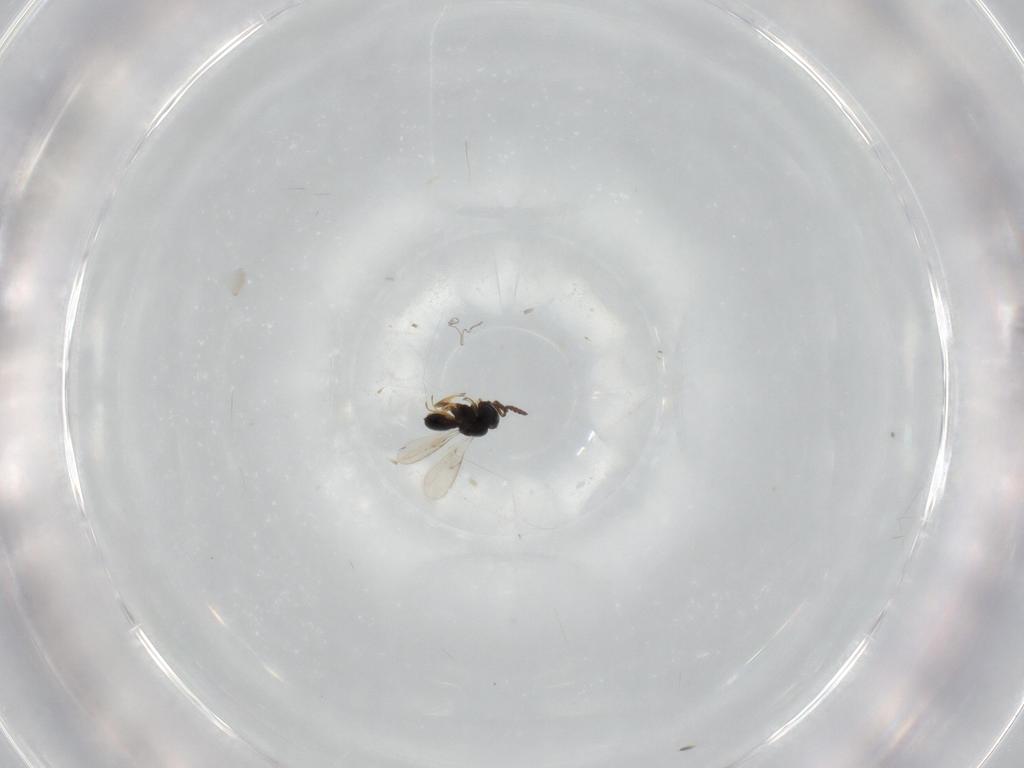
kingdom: Animalia
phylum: Arthropoda
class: Insecta
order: Hymenoptera
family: Scelionidae
